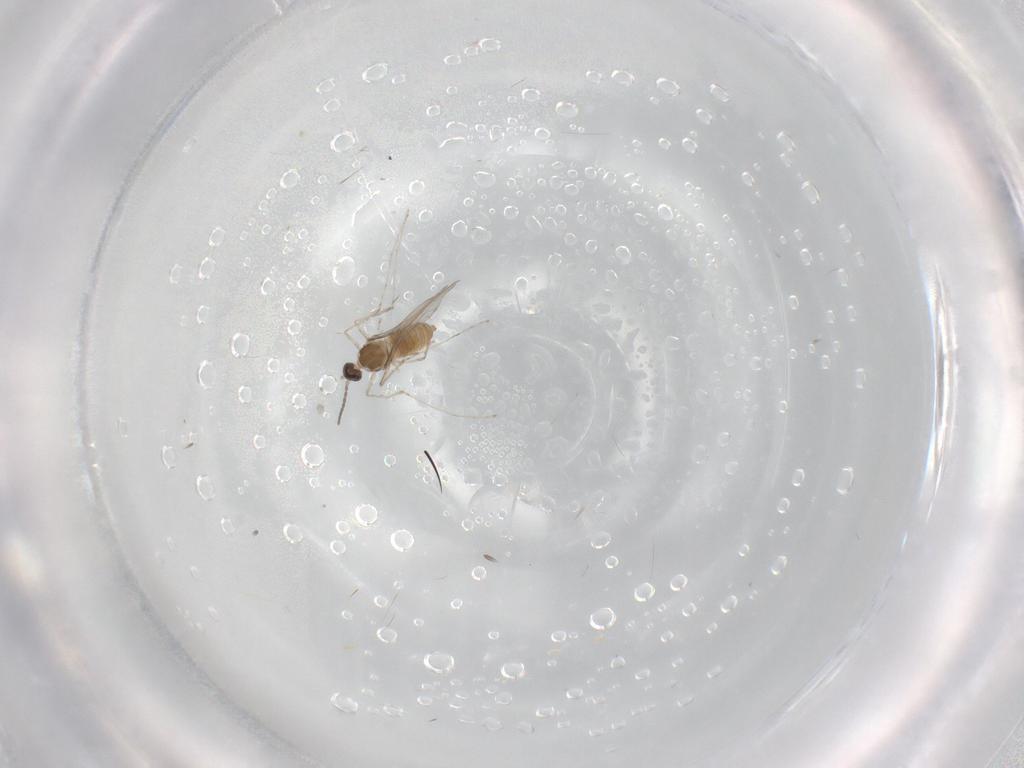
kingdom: Animalia
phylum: Arthropoda
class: Insecta
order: Diptera
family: Cecidomyiidae
